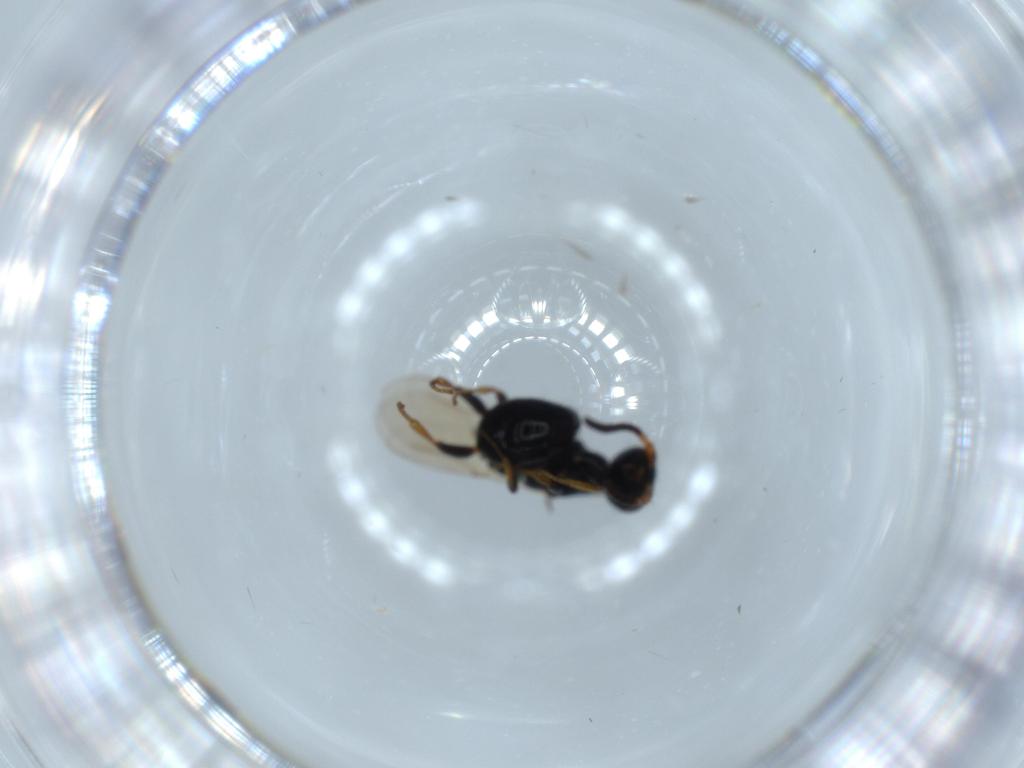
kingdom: Animalia
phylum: Arthropoda
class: Insecta
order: Hymenoptera
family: Bethylidae
